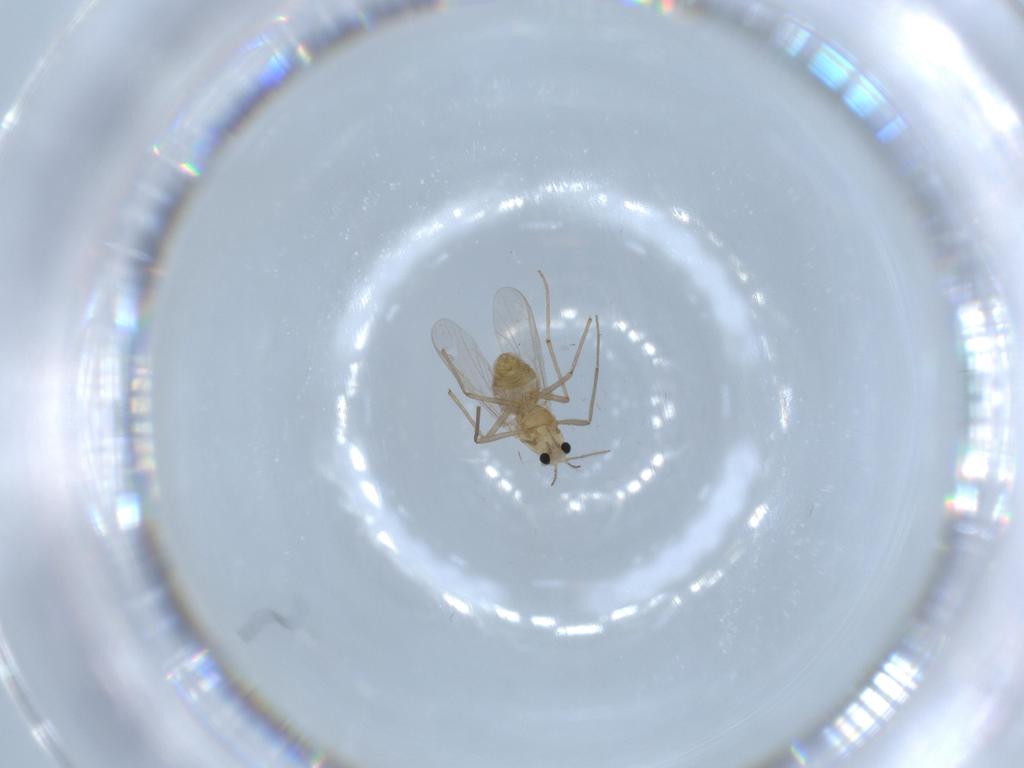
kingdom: Animalia
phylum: Arthropoda
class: Insecta
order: Diptera
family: Chironomidae
